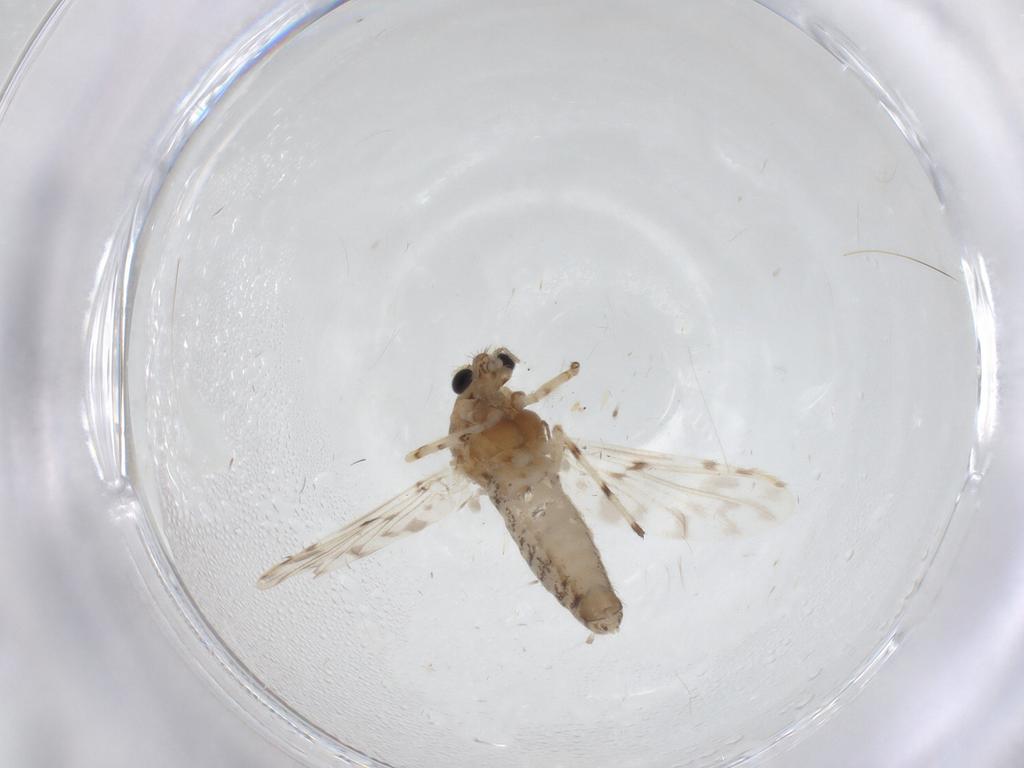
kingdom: Animalia
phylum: Arthropoda
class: Insecta
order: Diptera
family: Chironomidae
